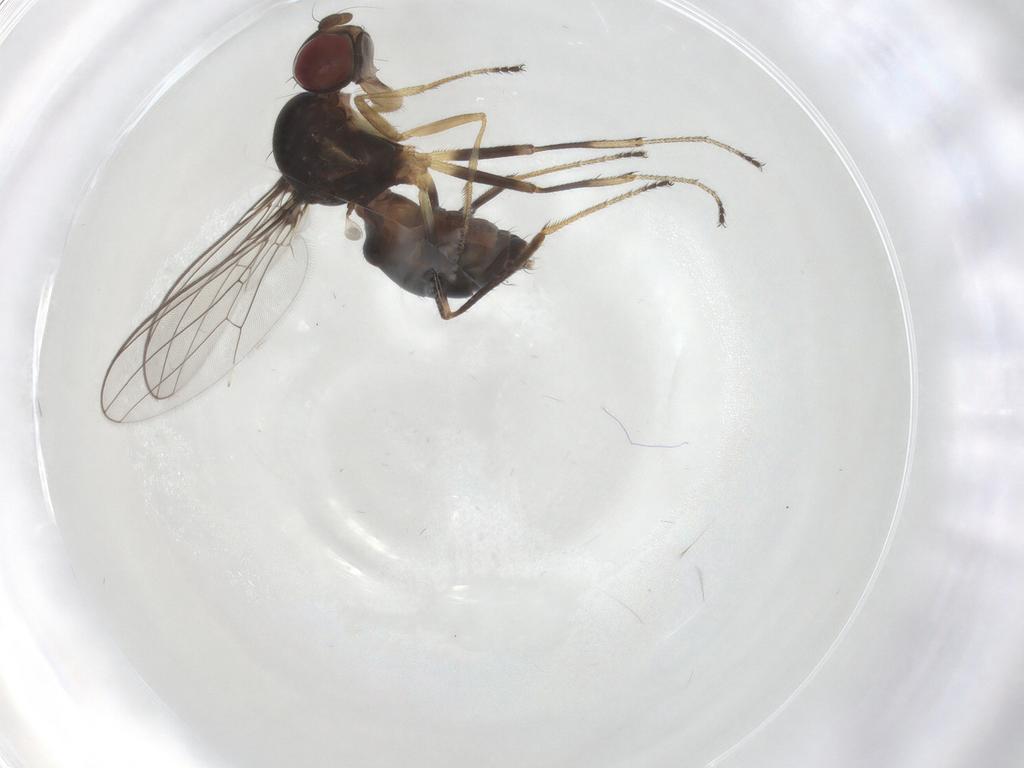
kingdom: Animalia
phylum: Arthropoda
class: Insecta
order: Diptera
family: Sepsidae
